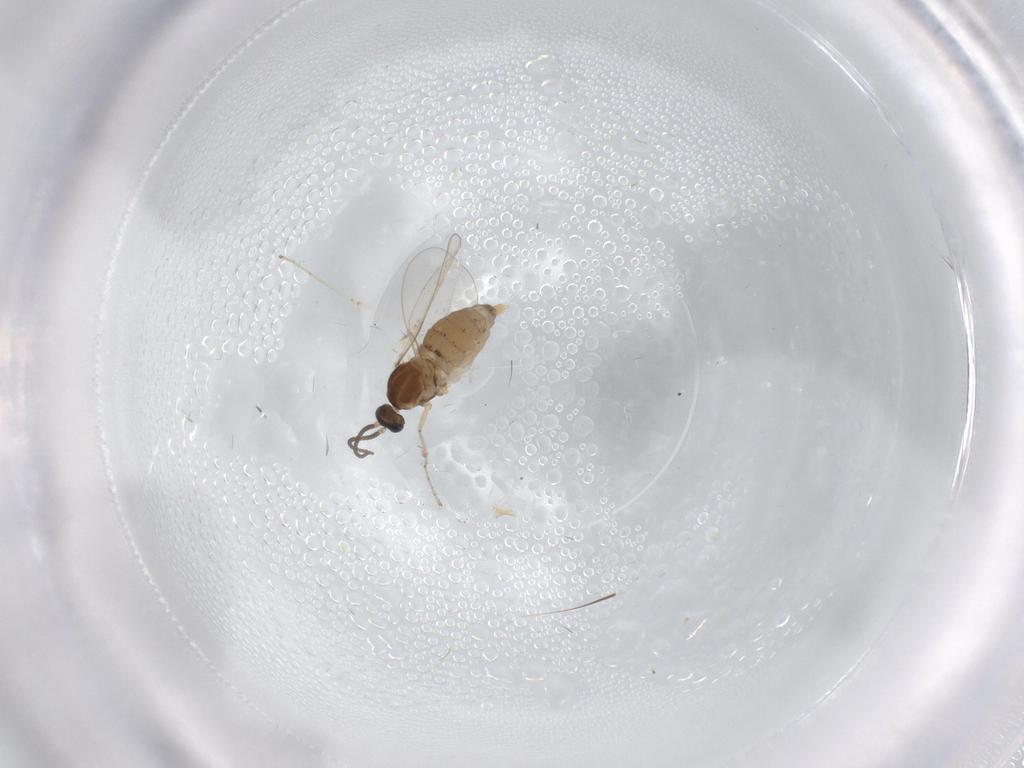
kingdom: Animalia
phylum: Arthropoda
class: Insecta
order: Diptera
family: Cecidomyiidae
